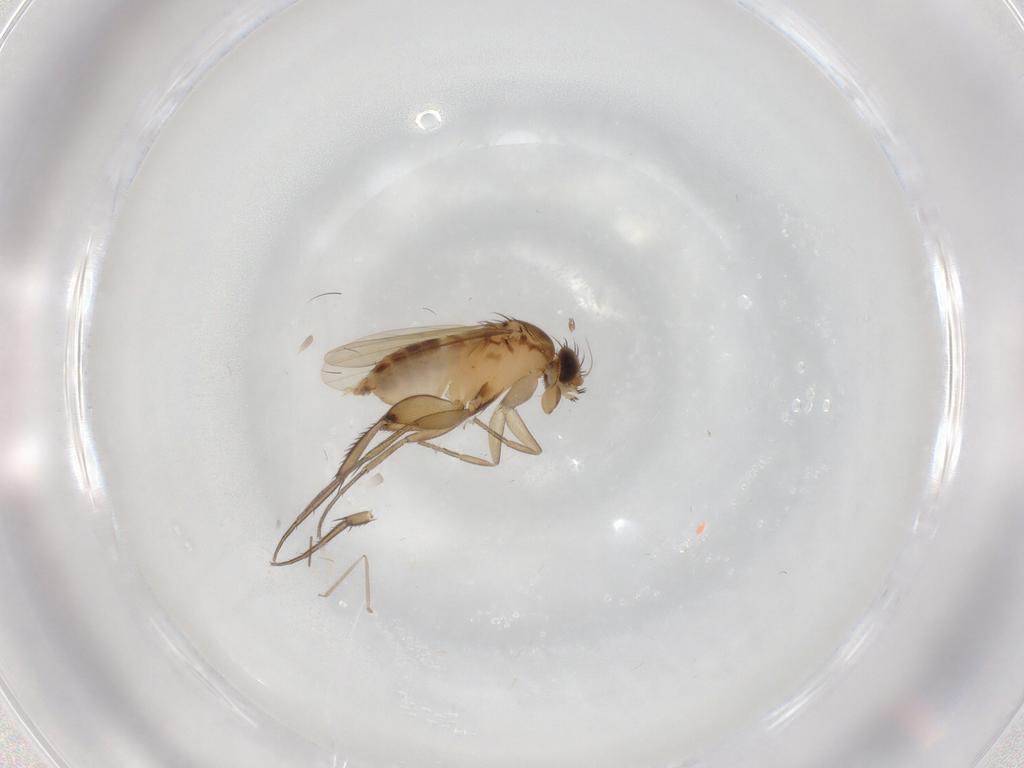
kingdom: Animalia
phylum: Arthropoda
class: Insecta
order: Diptera
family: Phoridae
